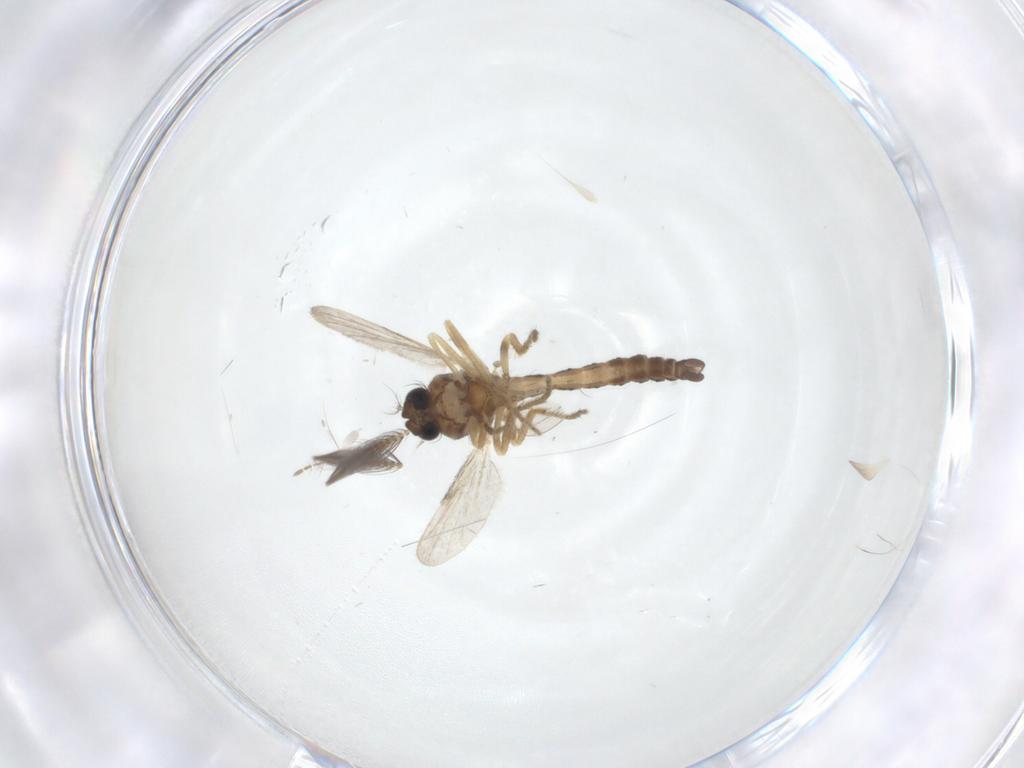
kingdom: Animalia
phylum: Arthropoda
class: Insecta
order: Diptera
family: Ceratopogonidae
